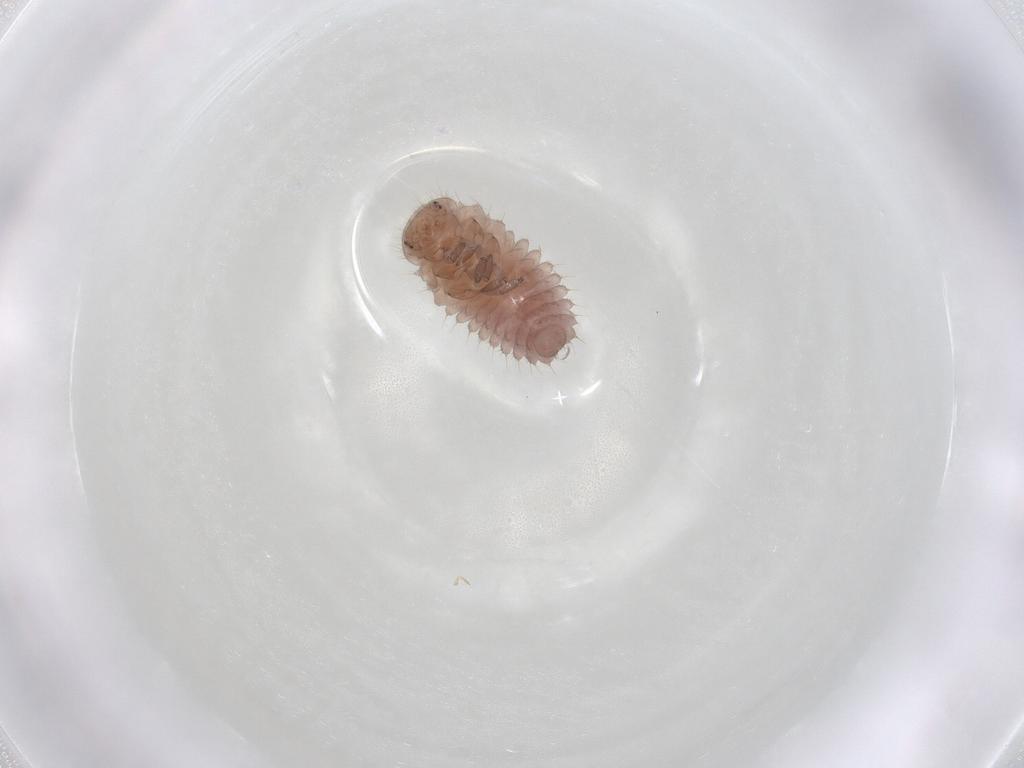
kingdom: Animalia
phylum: Arthropoda
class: Insecta
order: Coleoptera
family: Coccinellidae
